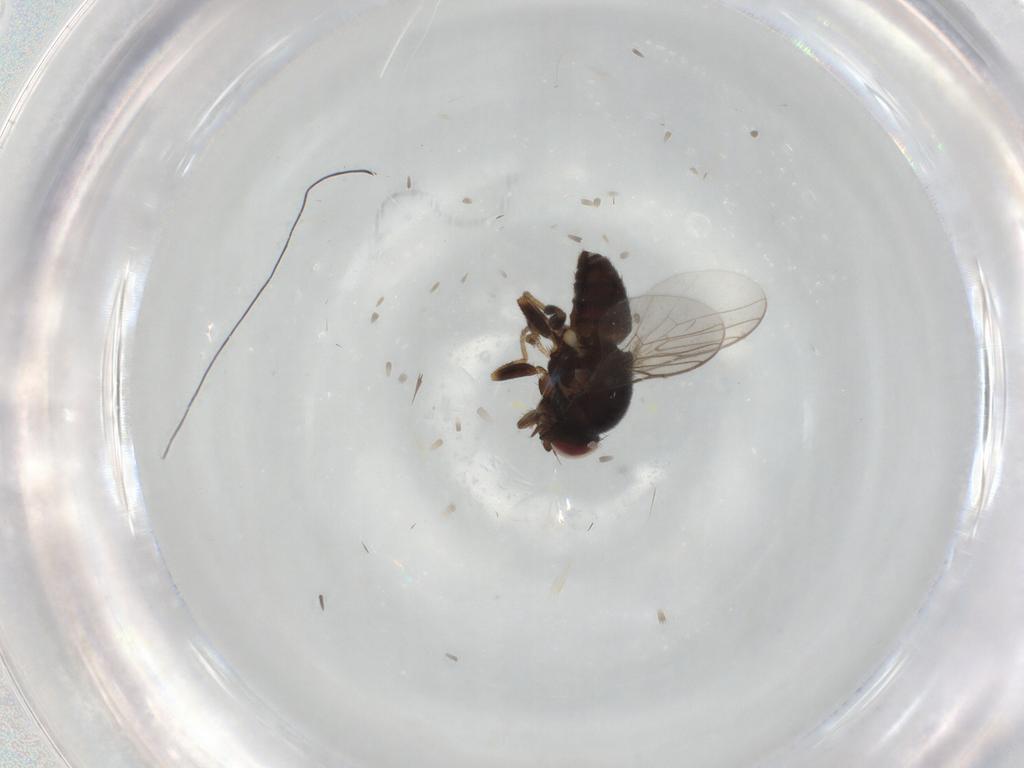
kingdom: Animalia
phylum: Arthropoda
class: Insecta
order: Diptera
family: Chloropidae
